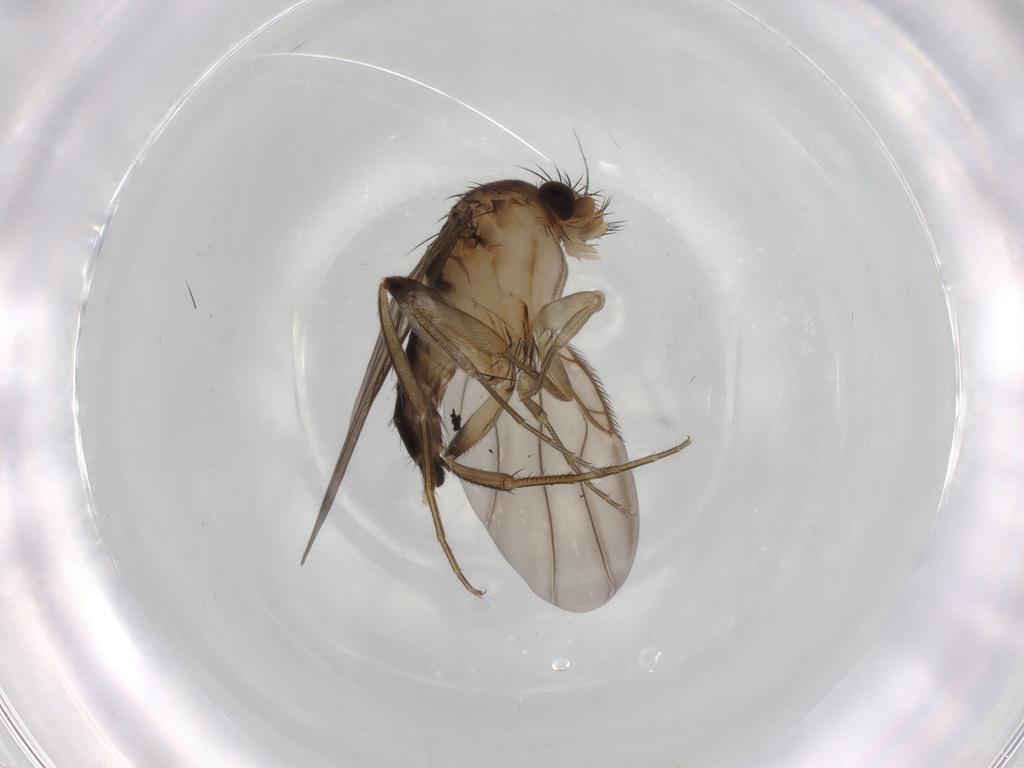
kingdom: Animalia
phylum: Arthropoda
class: Insecta
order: Diptera
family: Phoridae
